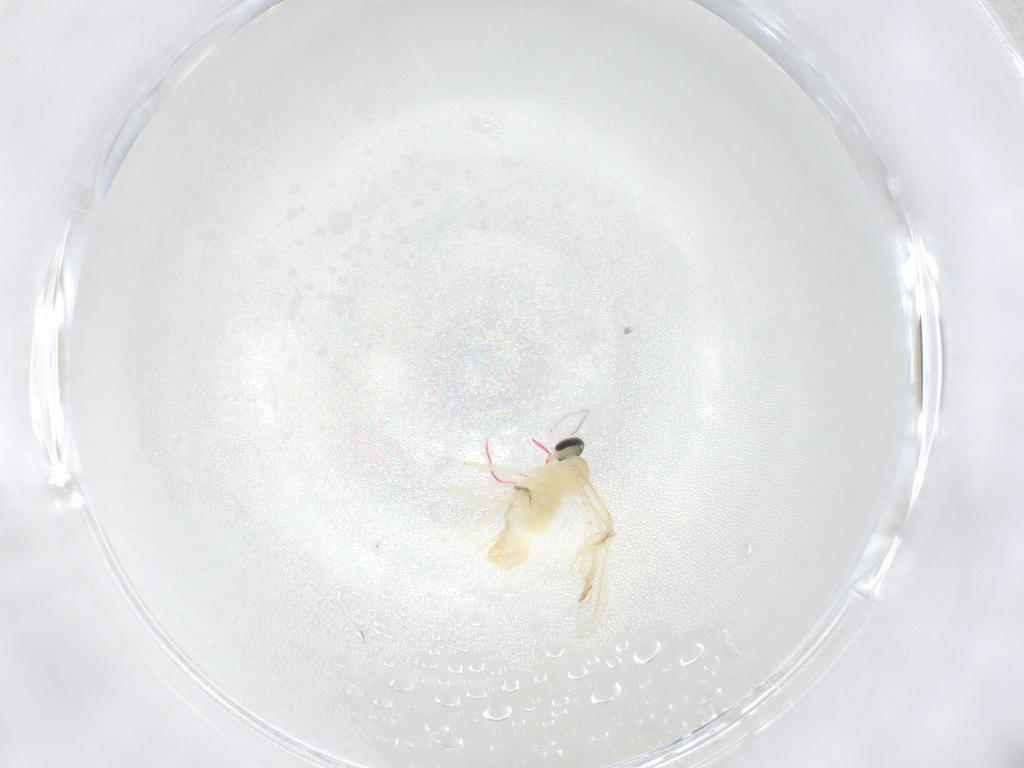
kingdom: Animalia
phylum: Arthropoda
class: Insecta
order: Diptera
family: Cecidomyiidae
